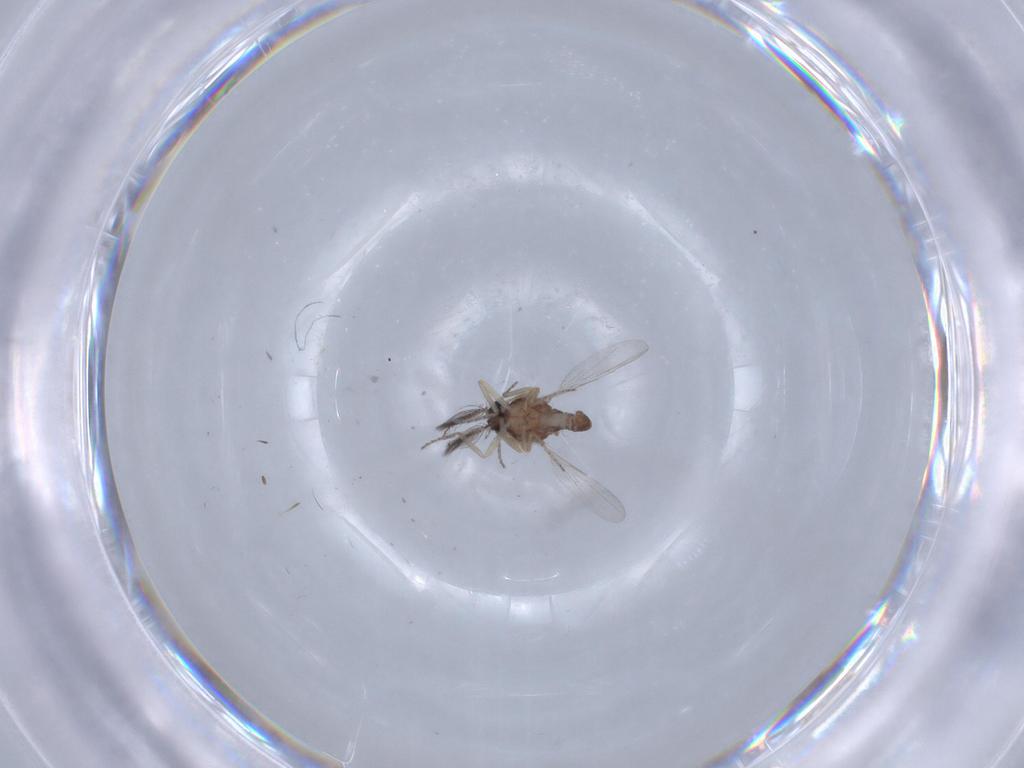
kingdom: Animalia
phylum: Arthropoda
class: Insecta
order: Diptera
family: Ceratopogonidae
